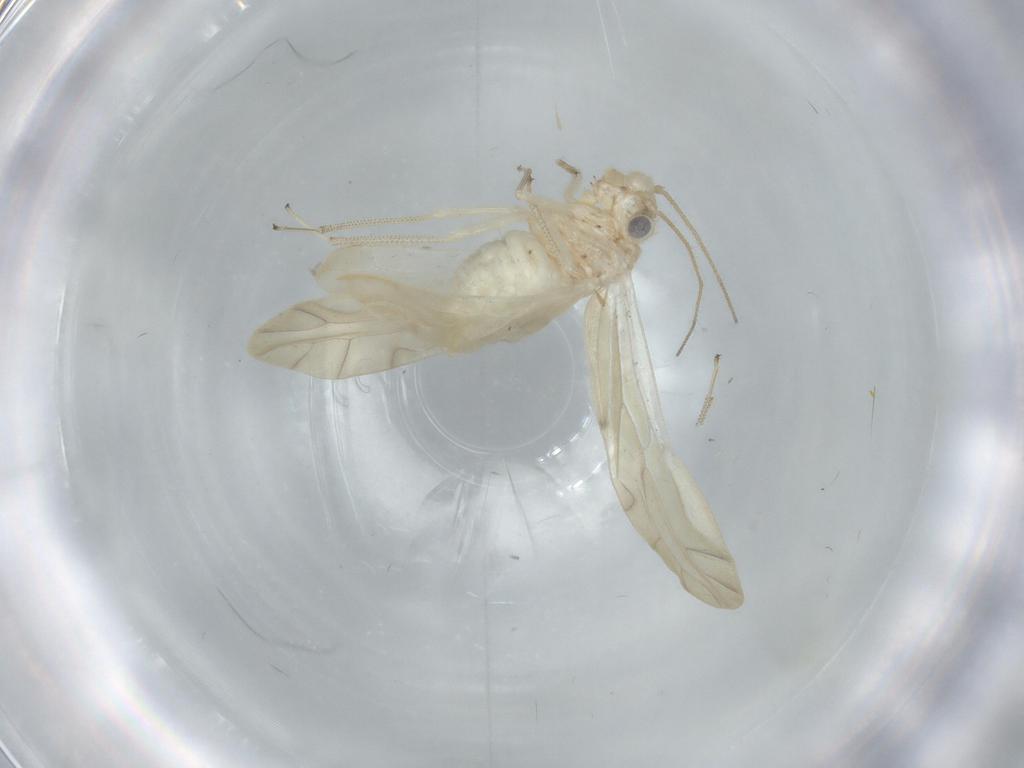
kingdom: Animalia
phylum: Arthropoda
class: Insecta
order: Psocodea
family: Caeciliusidae
